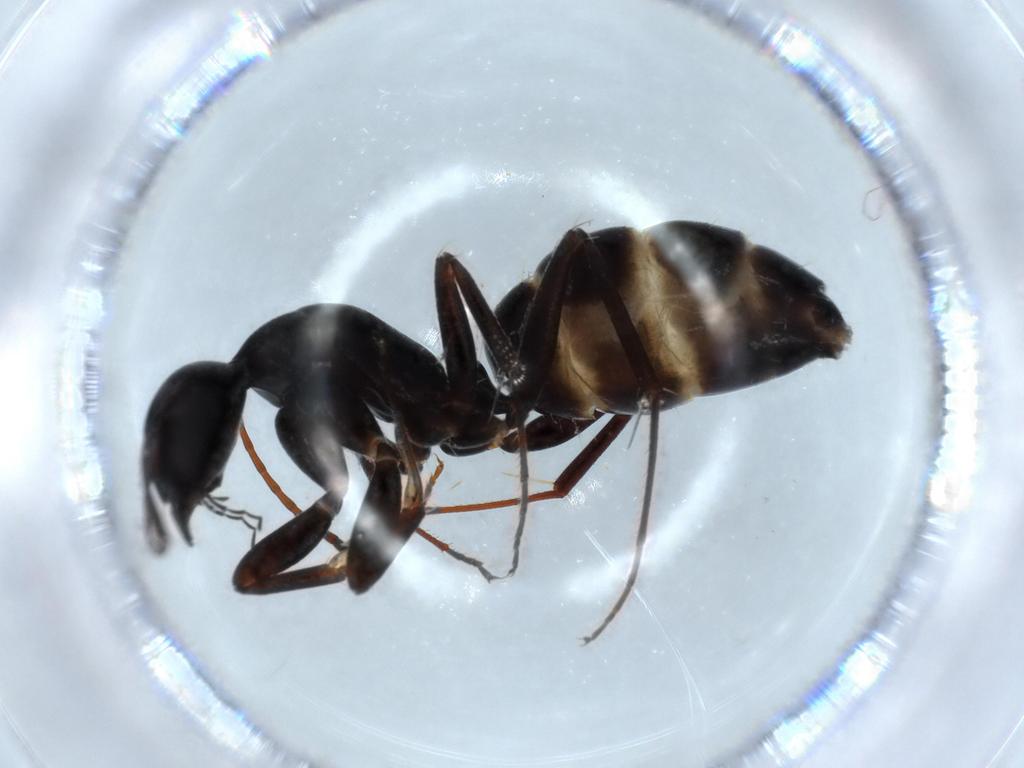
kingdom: Animalia
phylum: Arthropoda
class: Insecta
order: Hymenoptera
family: Formicidae
